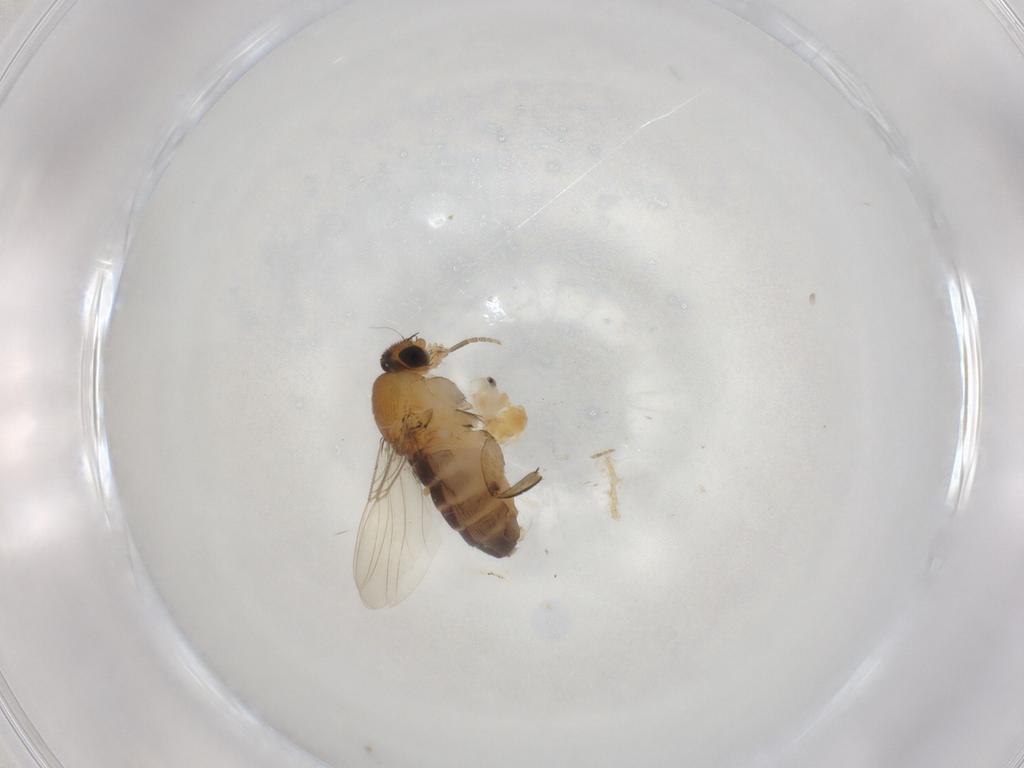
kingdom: Animalia
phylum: Arthropoda
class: Insecta
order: Diptera
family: Phoridae
